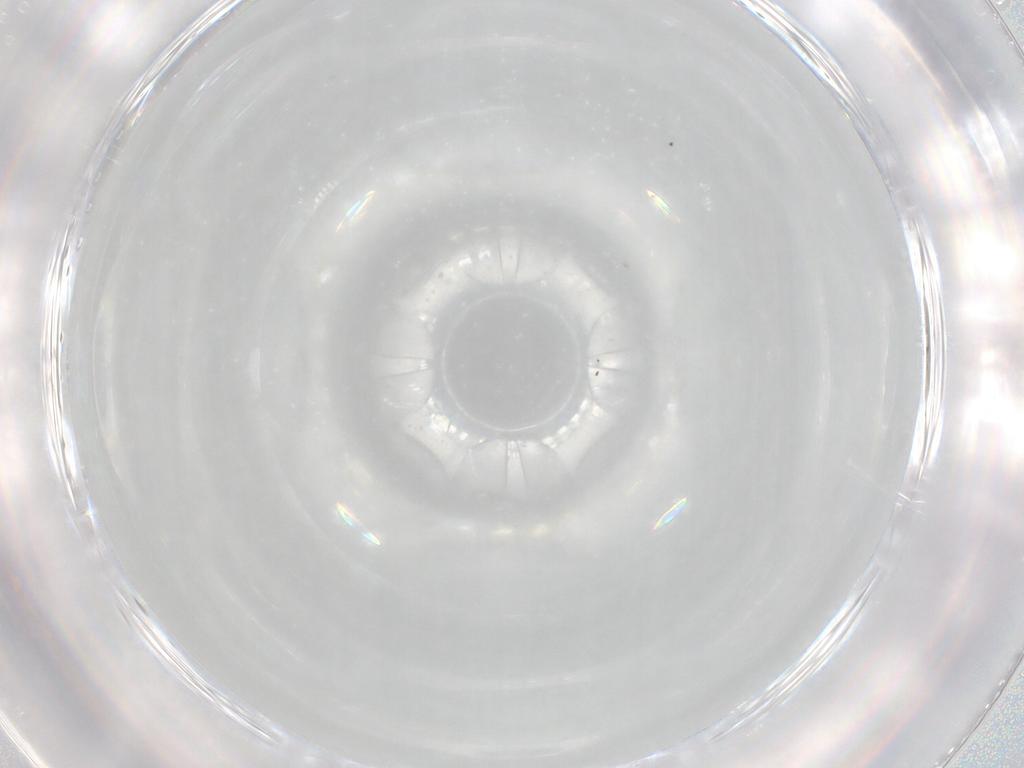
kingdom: Animalia
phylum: Arthropoda
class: Arachnida
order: Trombidiformes
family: Erythraeidae
